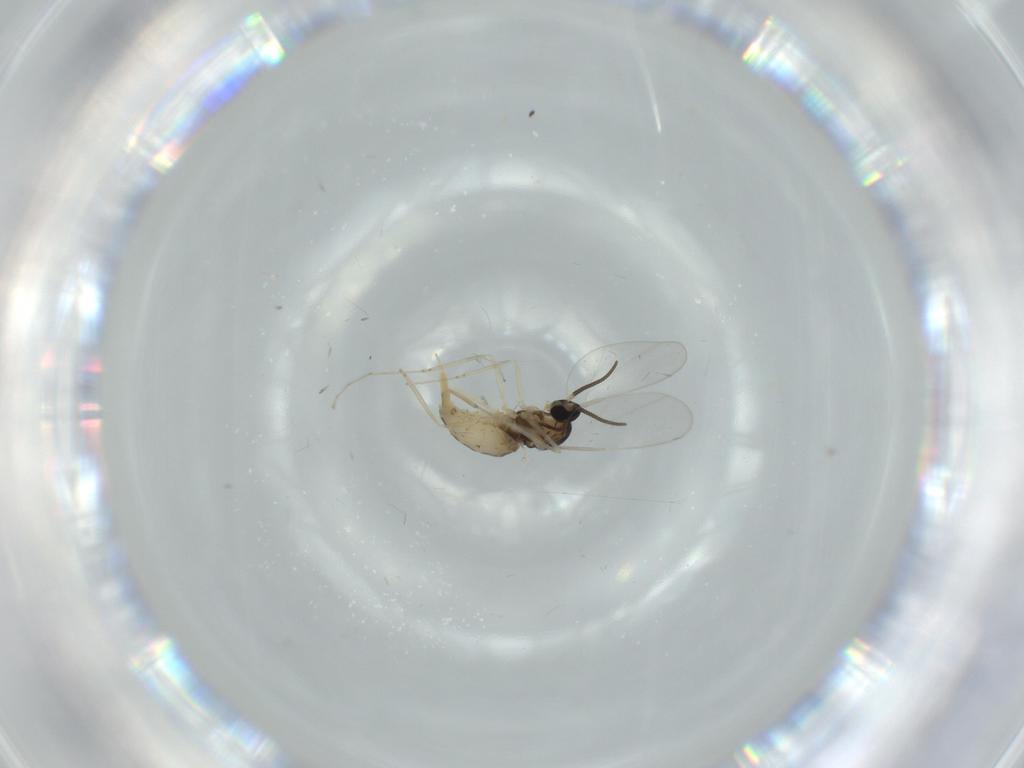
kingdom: Animalia
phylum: Arthropoda
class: Insecta
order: Diptera
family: Cecidomyiidae
